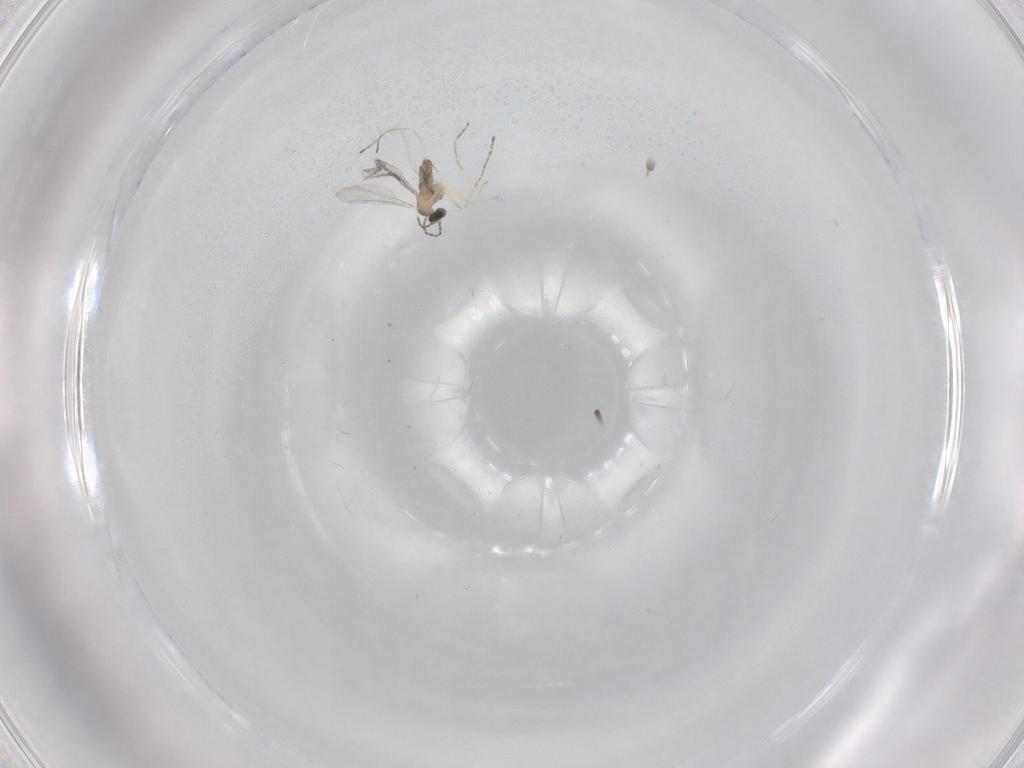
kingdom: Animalia
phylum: Arthropoda
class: Insecta
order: Diptera
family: Cecidomyiidae
